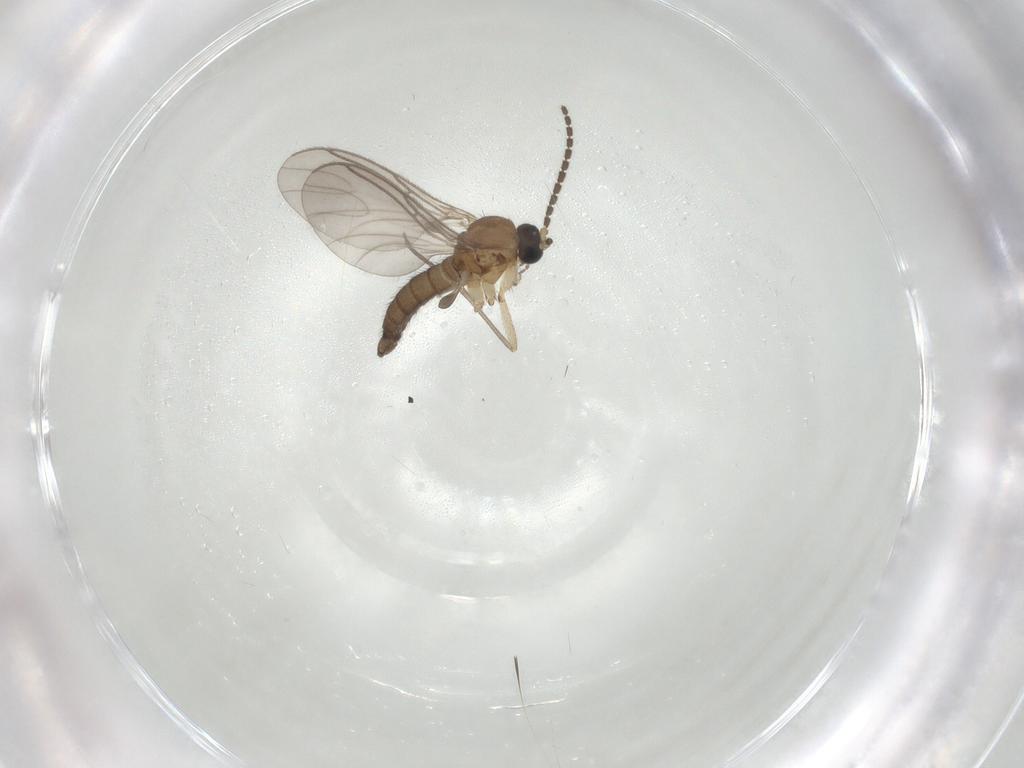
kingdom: Animalia
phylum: Arthropoda
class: Insecta
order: Diptera
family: Sciaridae
